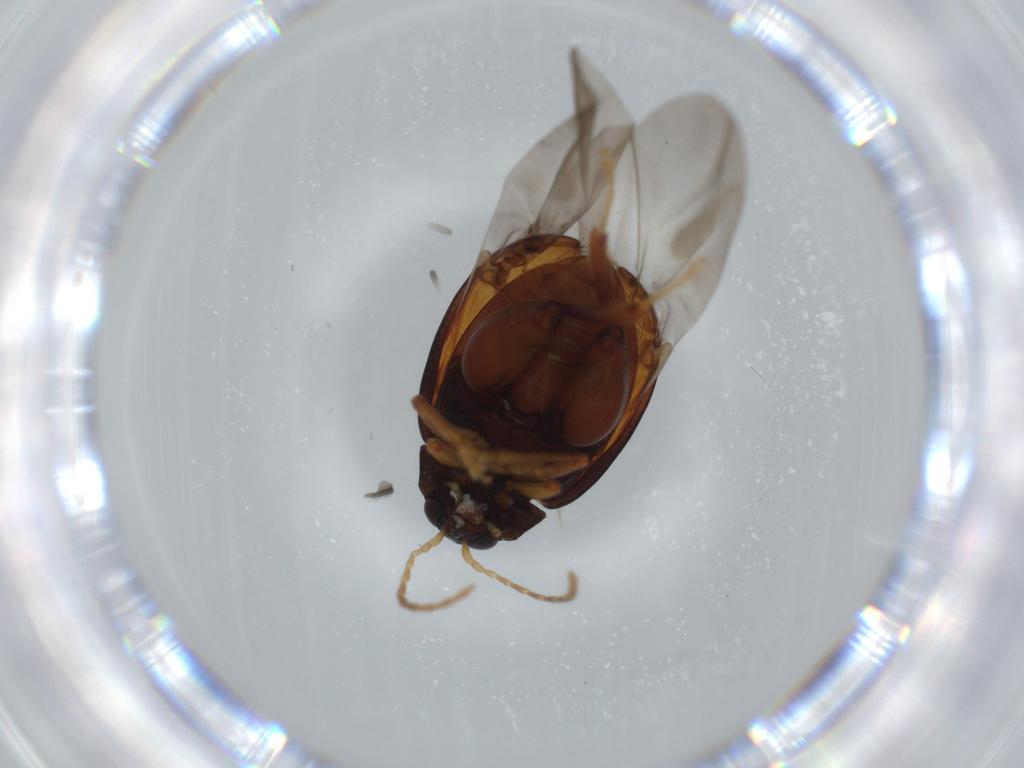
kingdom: Animalia
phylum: Arthropoda
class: Insecta
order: Coleoptera
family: Chrysomelidae
